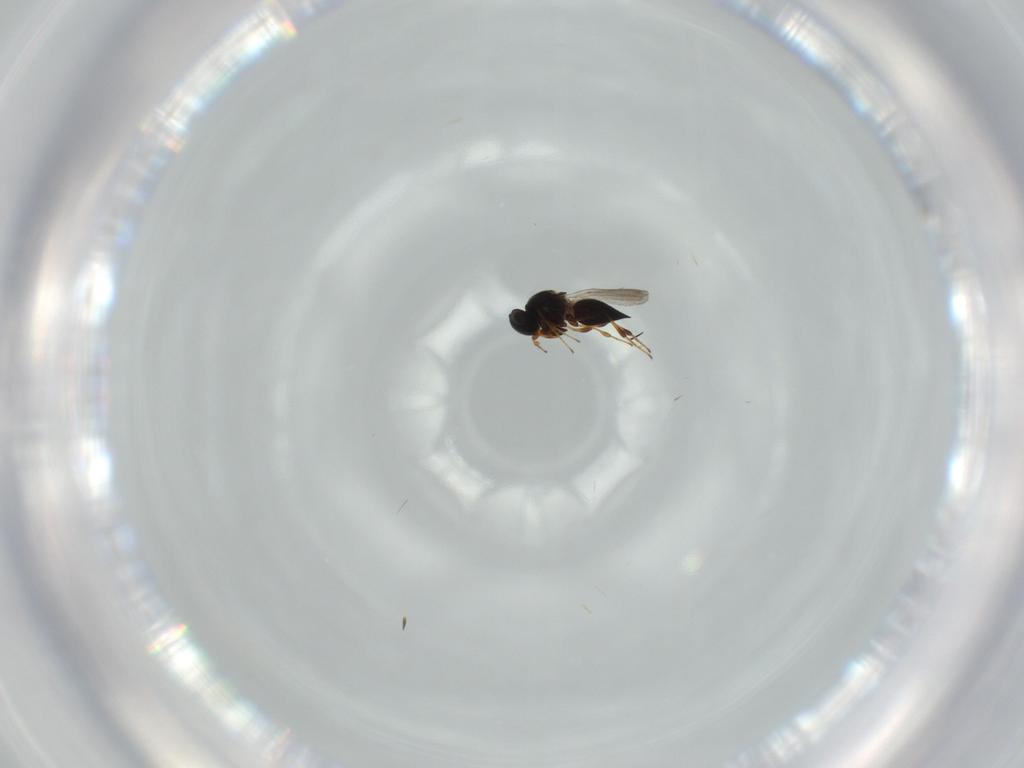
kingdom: Animalia
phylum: Arthropoda
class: Insecta
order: Hymenoptera
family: Platygastridae
